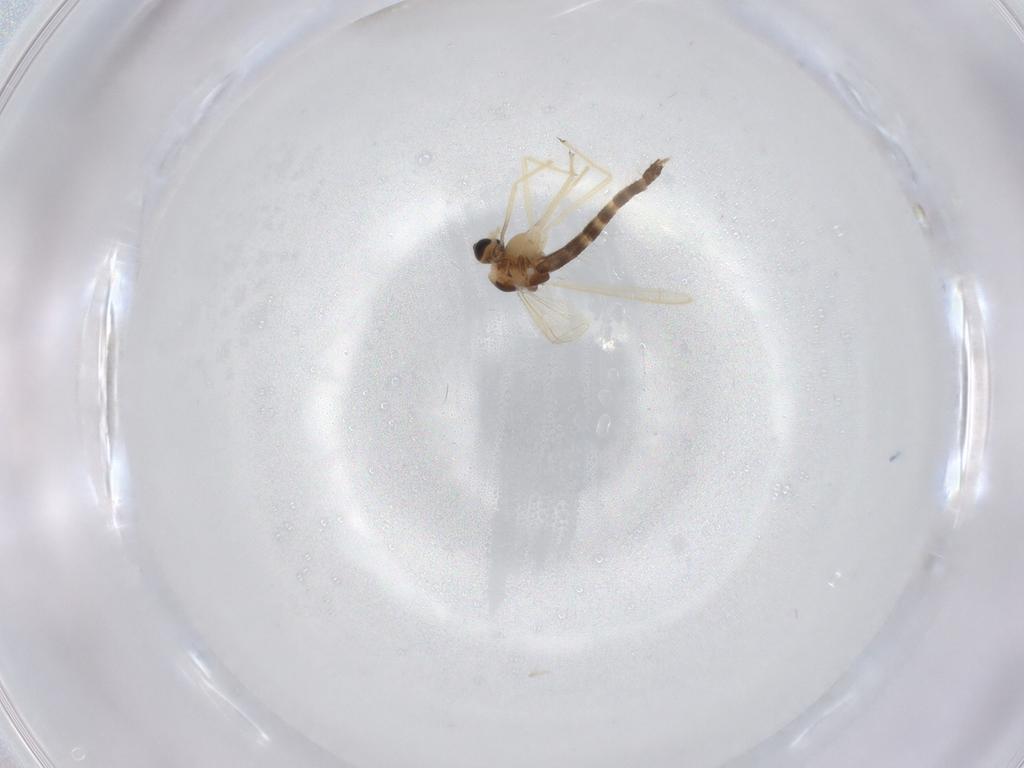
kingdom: Animalia
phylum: Arthropoda
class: Insecta
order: Diptera
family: Chironomidae
